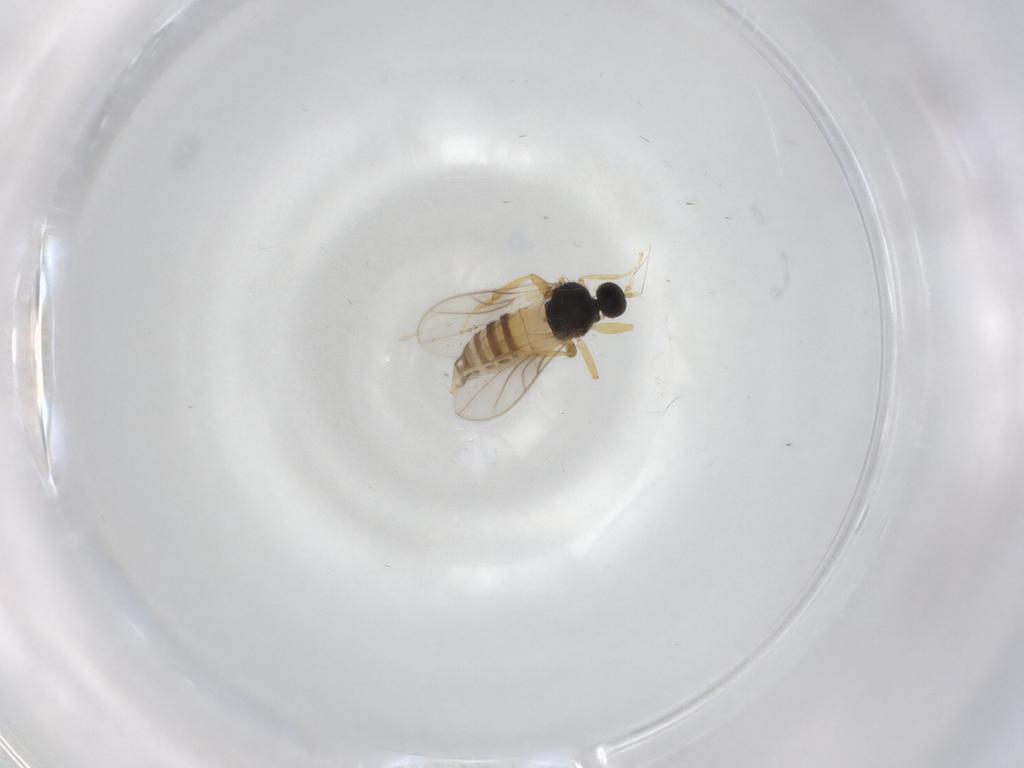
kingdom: Animalia
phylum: Arthropoda
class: Insecta
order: Diptera
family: Hybotidae
